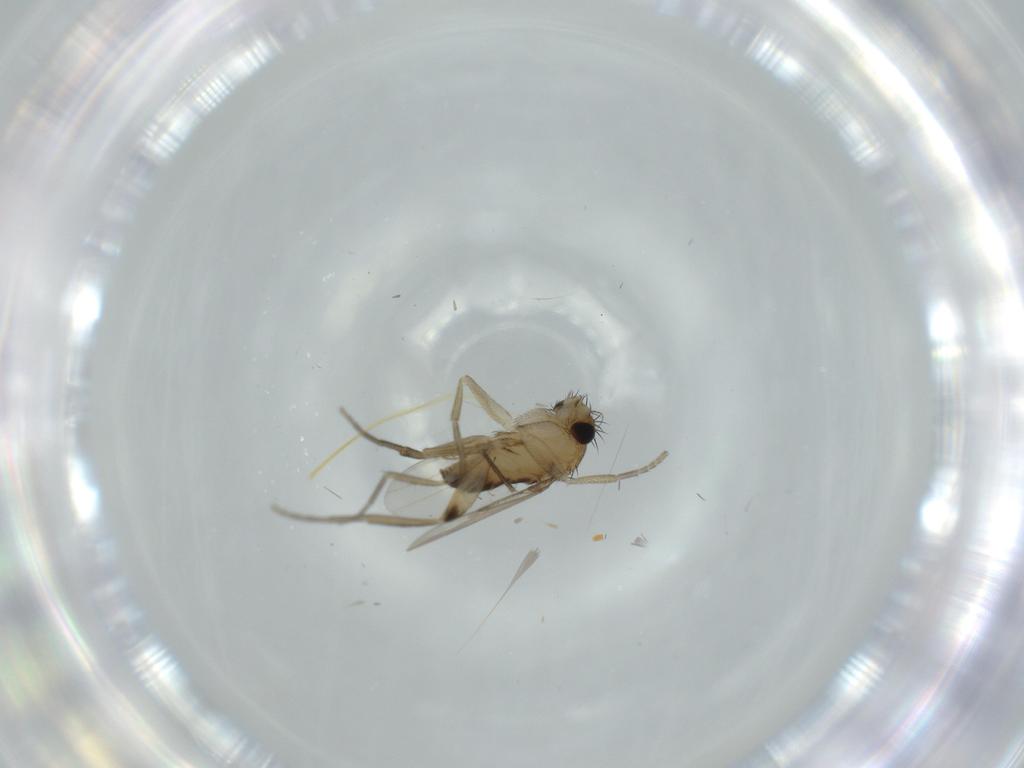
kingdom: Animalia
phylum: Arthropoda
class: Insecta
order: Diptera
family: Phoridae
